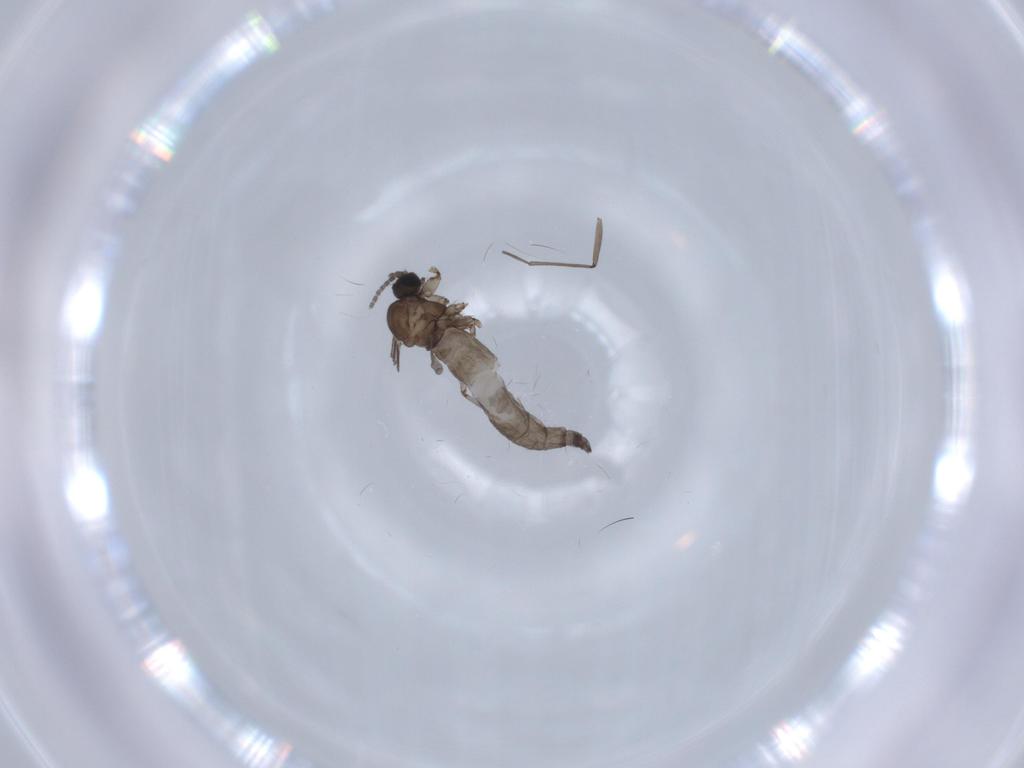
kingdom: Animalia
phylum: Arthropoda
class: Insecta
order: Diptera
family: Sciaridae
